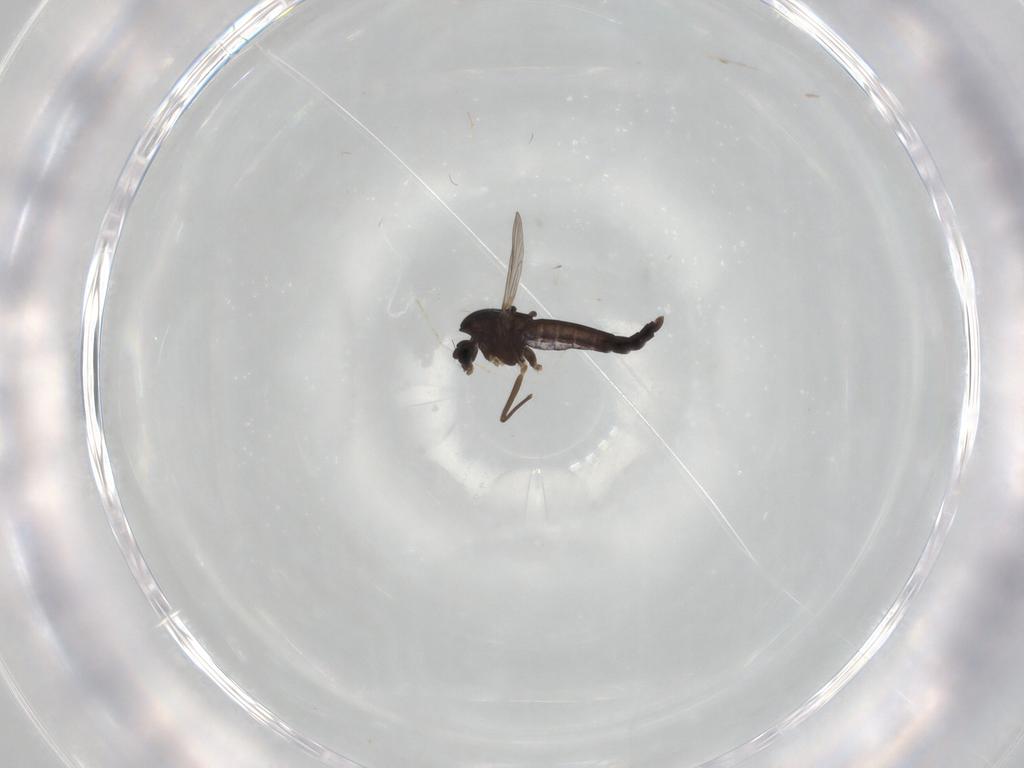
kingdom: Animalia
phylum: Arthropoda
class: Insecta
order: Diptera
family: Chironomidae
